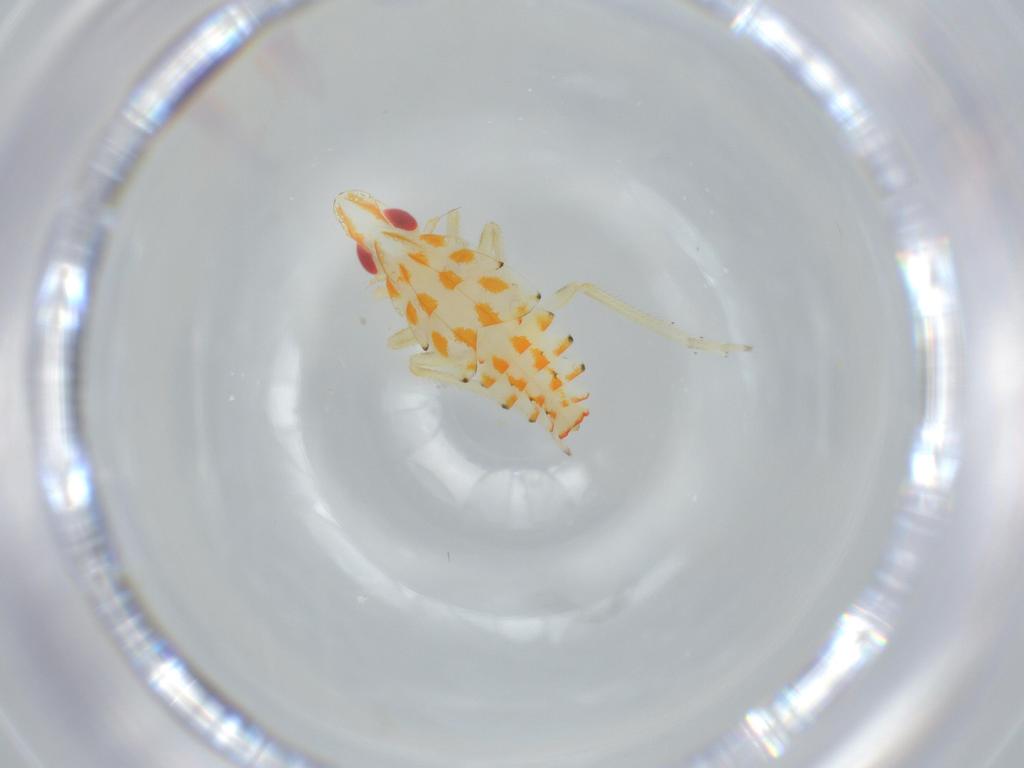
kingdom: Animalia
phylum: Arthropoda
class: Insecta
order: Hemiptera
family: Tropiduchidae
